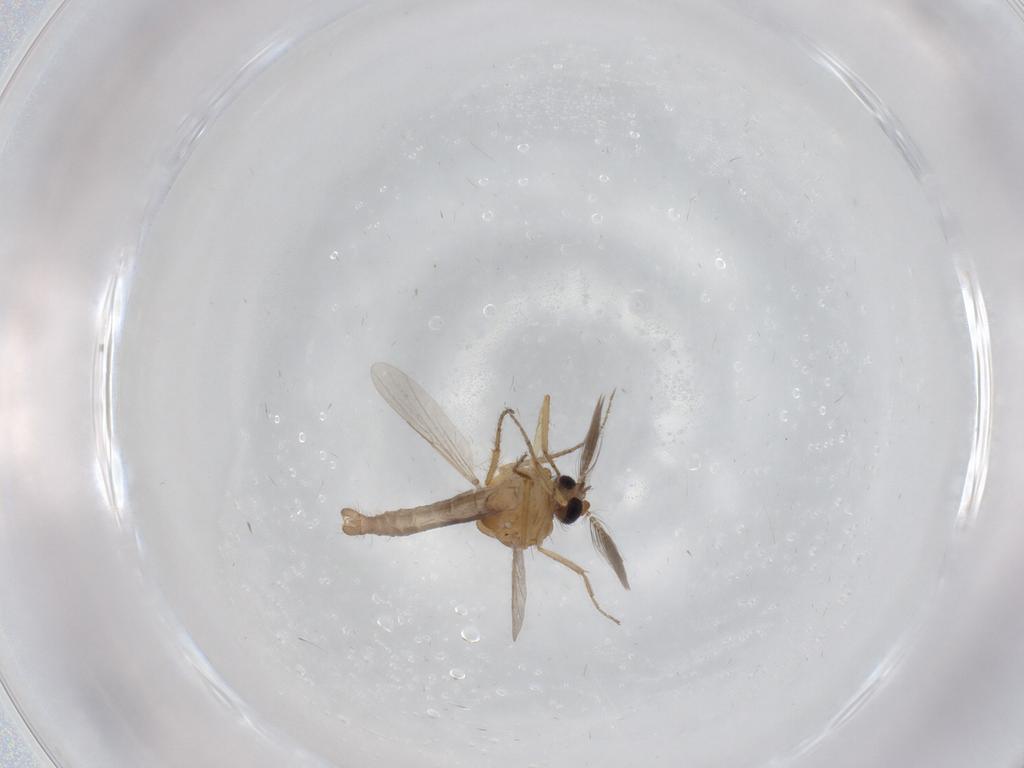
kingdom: Animalia
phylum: Arthropoda
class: Insecta
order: Diptera
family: Ceratopogonidae
